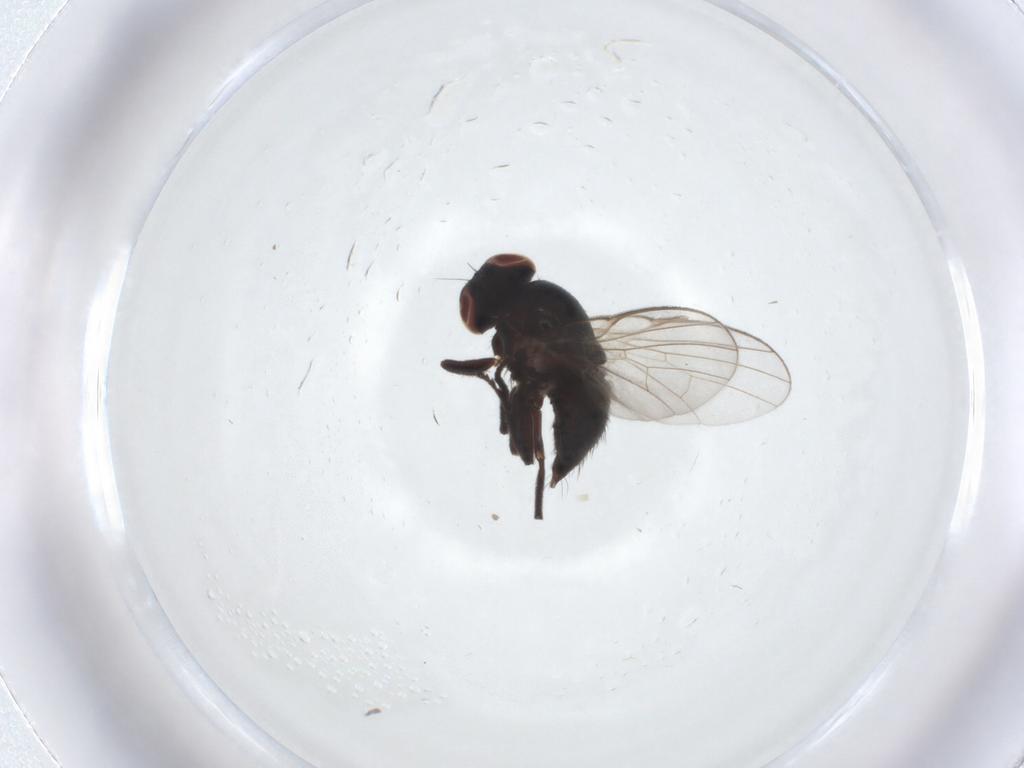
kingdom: Animalia
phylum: Arthropoda
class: Insecta
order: Diptera
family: Agromyzidae
